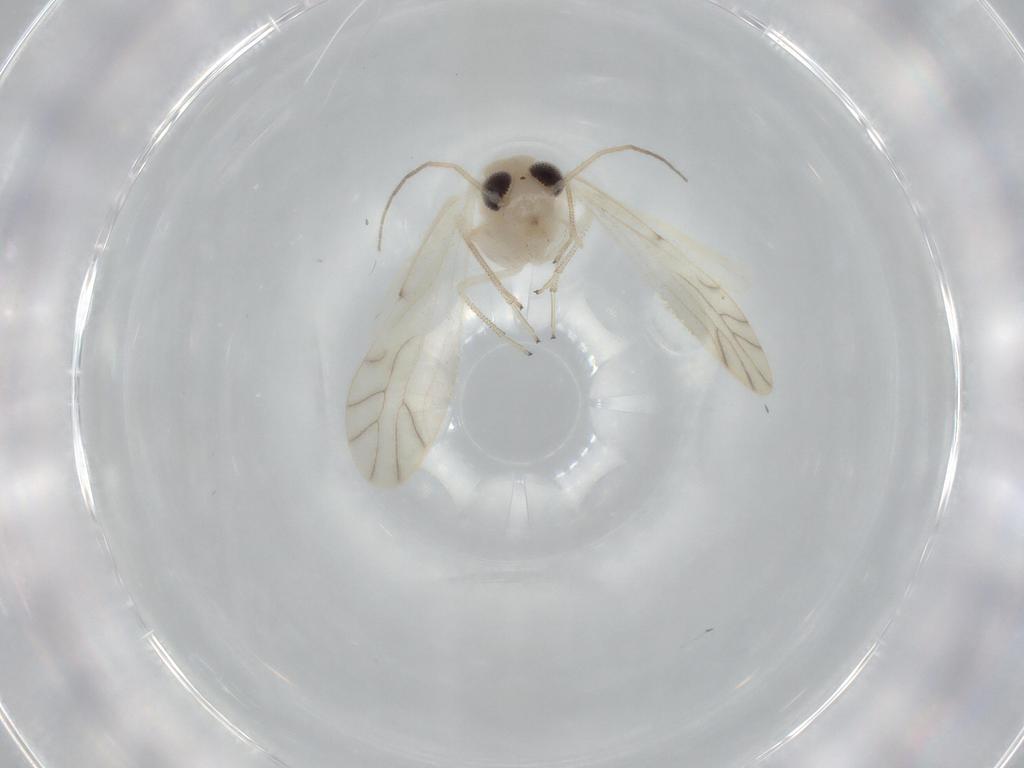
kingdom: Animalia
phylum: Arthropoda
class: Insecta
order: Psocodea
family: Caeciliusidae
